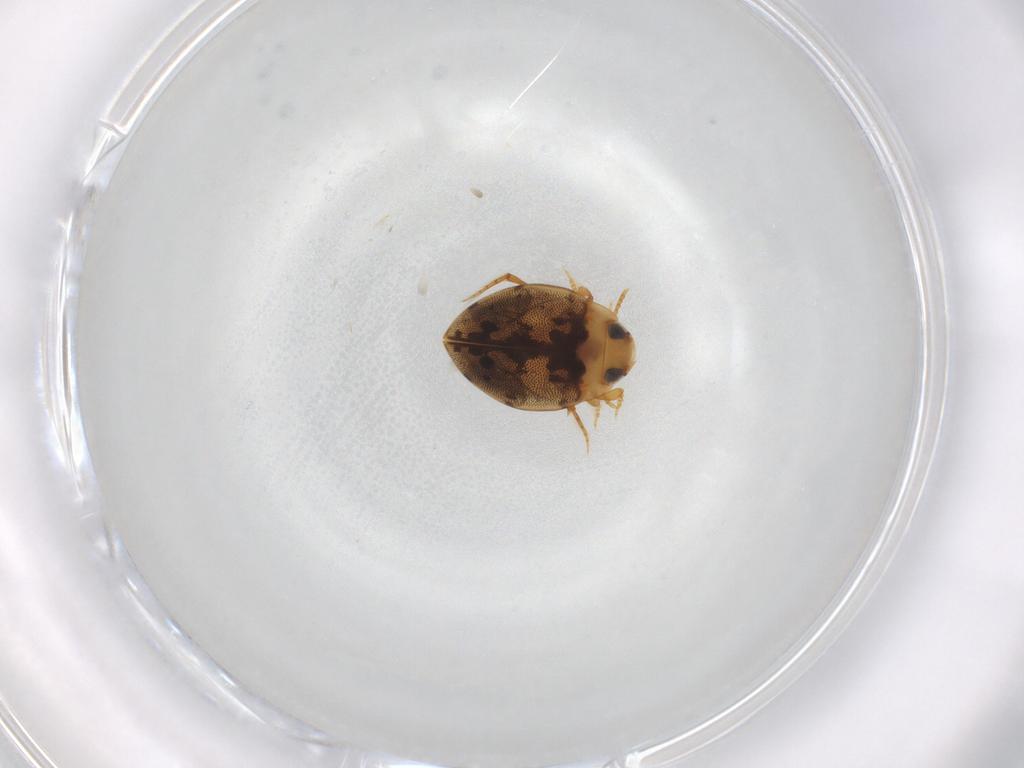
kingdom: Animalia
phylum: Arthropoda
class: Insecta
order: Coleoptera
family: Dytiscidae
